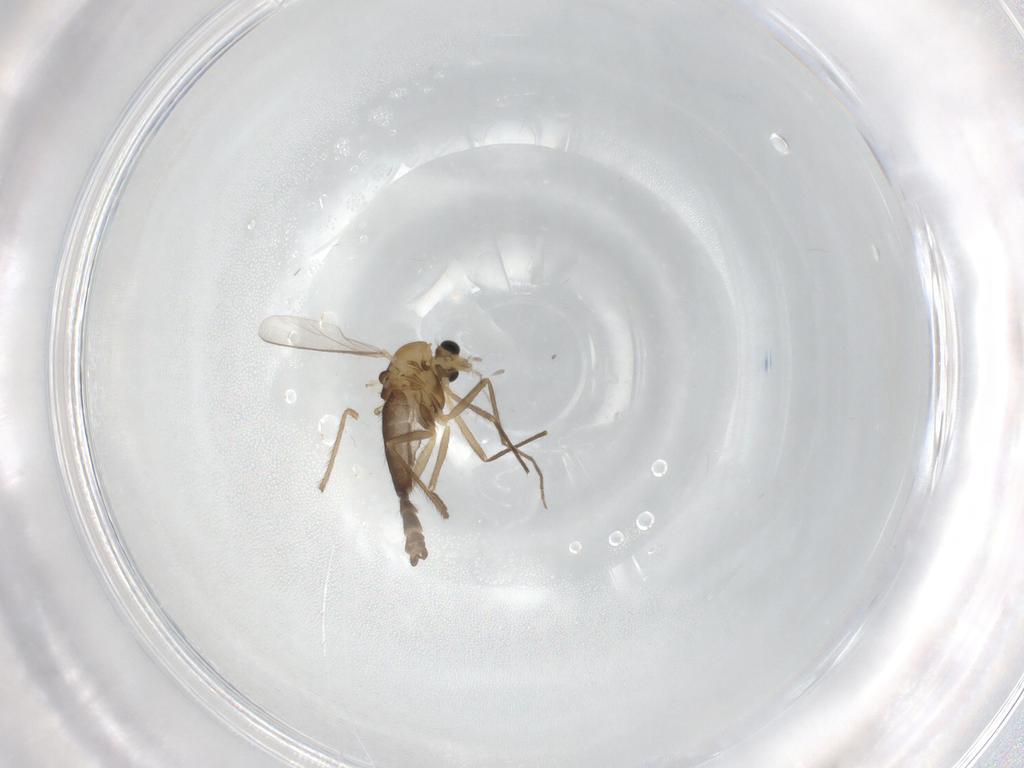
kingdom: Animalia
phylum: Arthropoda
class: Insecta
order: Diptera
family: Chironomidae
